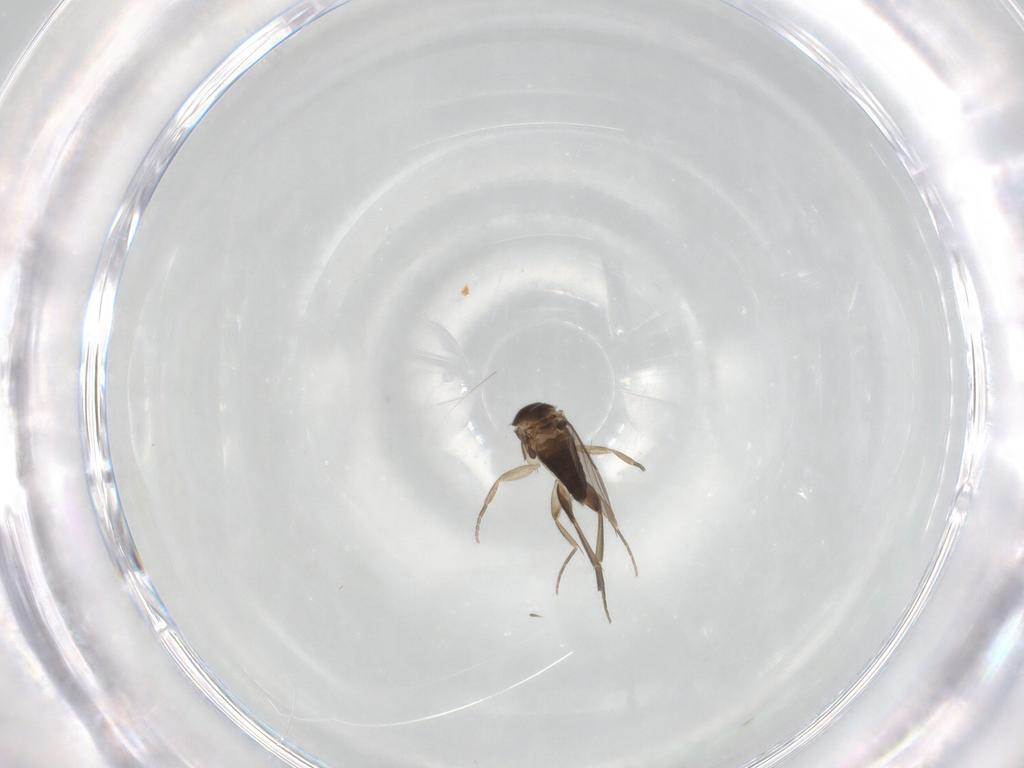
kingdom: Animalia
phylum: Arthropoda
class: Insecta
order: Diptera
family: Phoridae
